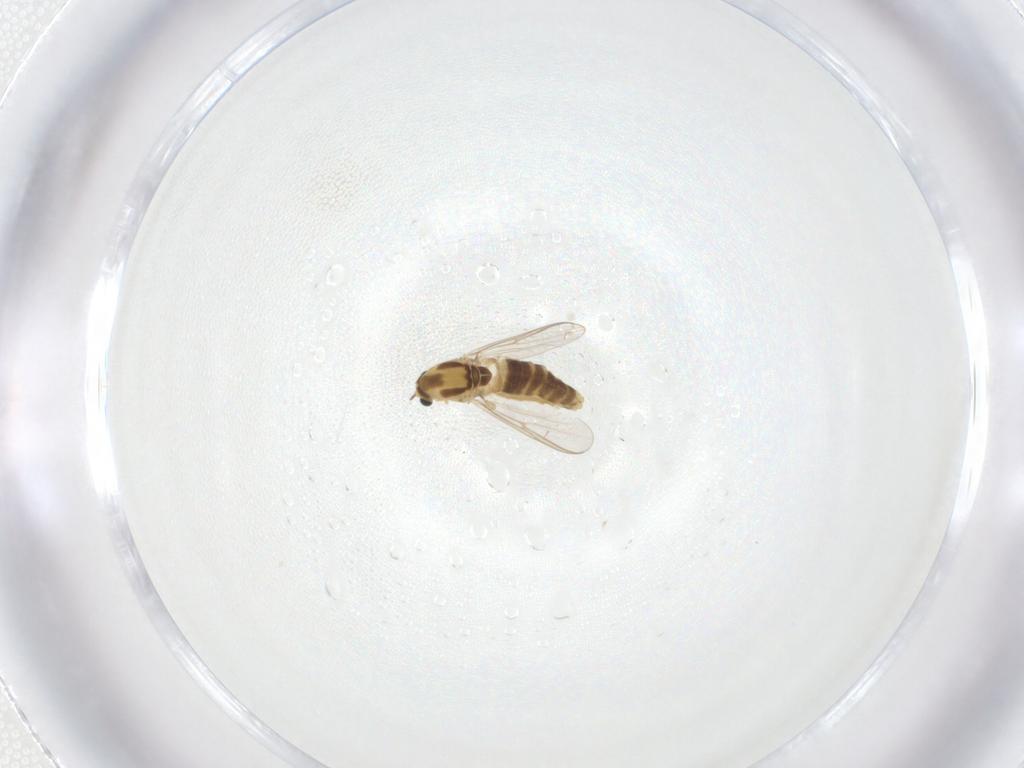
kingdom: Animalia
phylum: Arthropoda
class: Insecta
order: Diptera
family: Chironomidae
